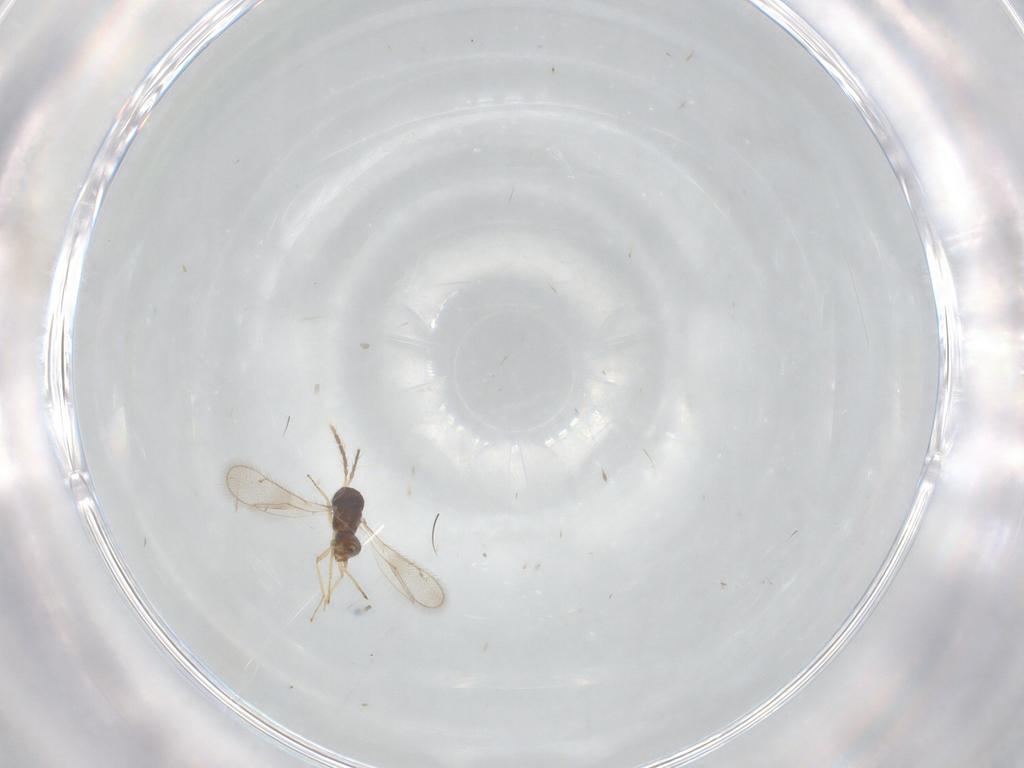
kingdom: Animalia
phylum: Arthropoda
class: Insecta
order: Hymenoptera
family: Eulophidae
